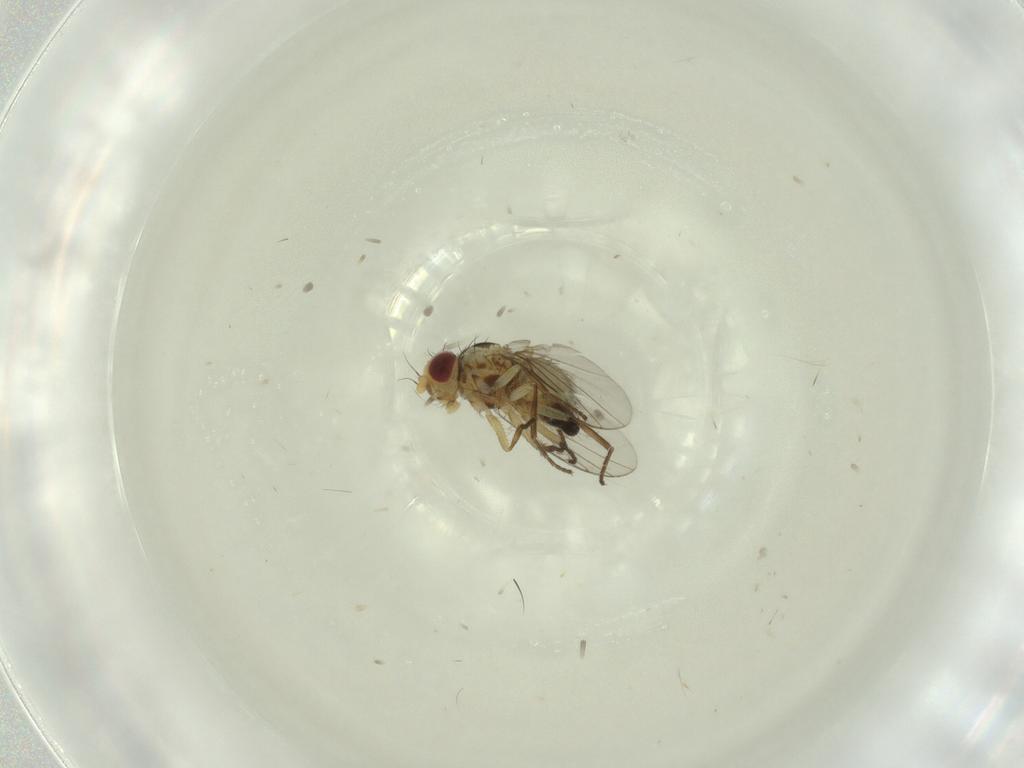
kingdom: Animalia
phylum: Arthropoda
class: Insecta
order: Diptera
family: Agromyzidae
